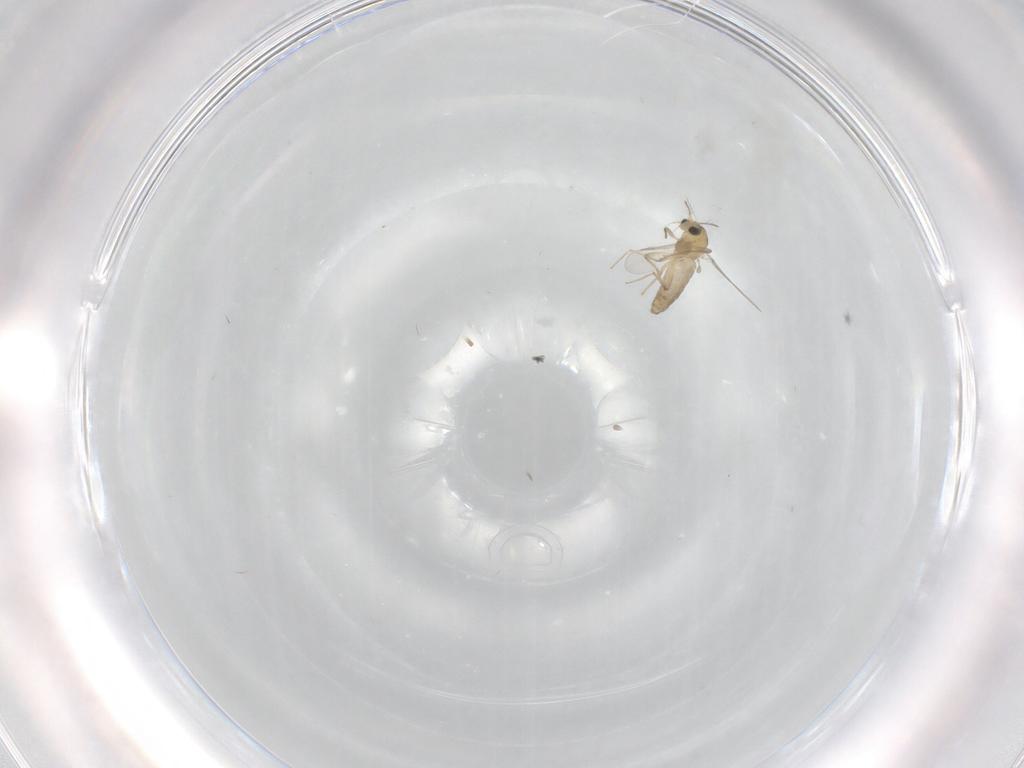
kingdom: Animalia
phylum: Arthropoda
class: Insecta
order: Diptera
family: Chironomidae
